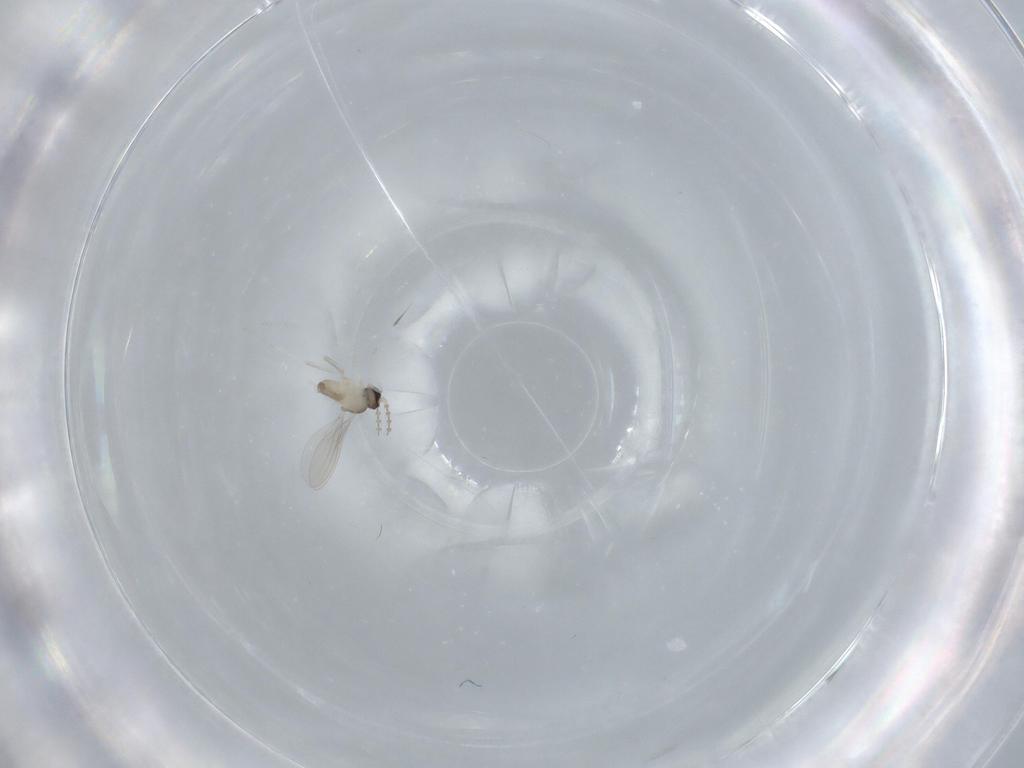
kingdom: Animalia
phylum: Arthropoda
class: Insecta
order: Diptera
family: Cecidomyiidae
